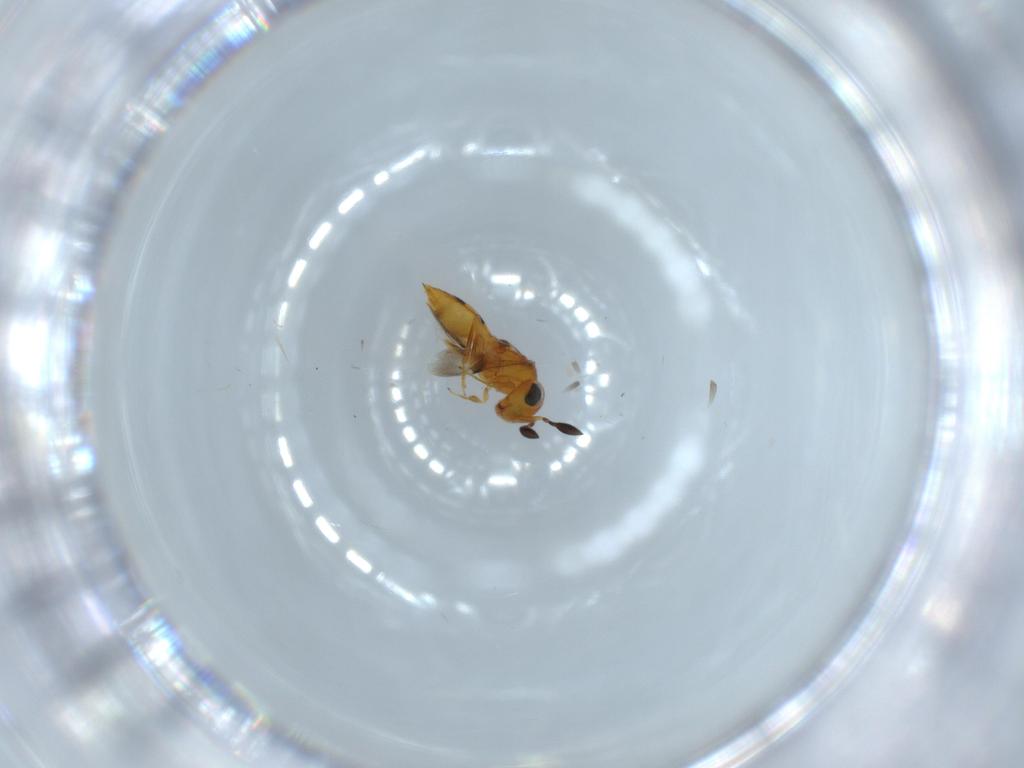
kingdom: Animalia
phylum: Arthropoda
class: Insecta
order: Hymenoptera
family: Scelionidae
